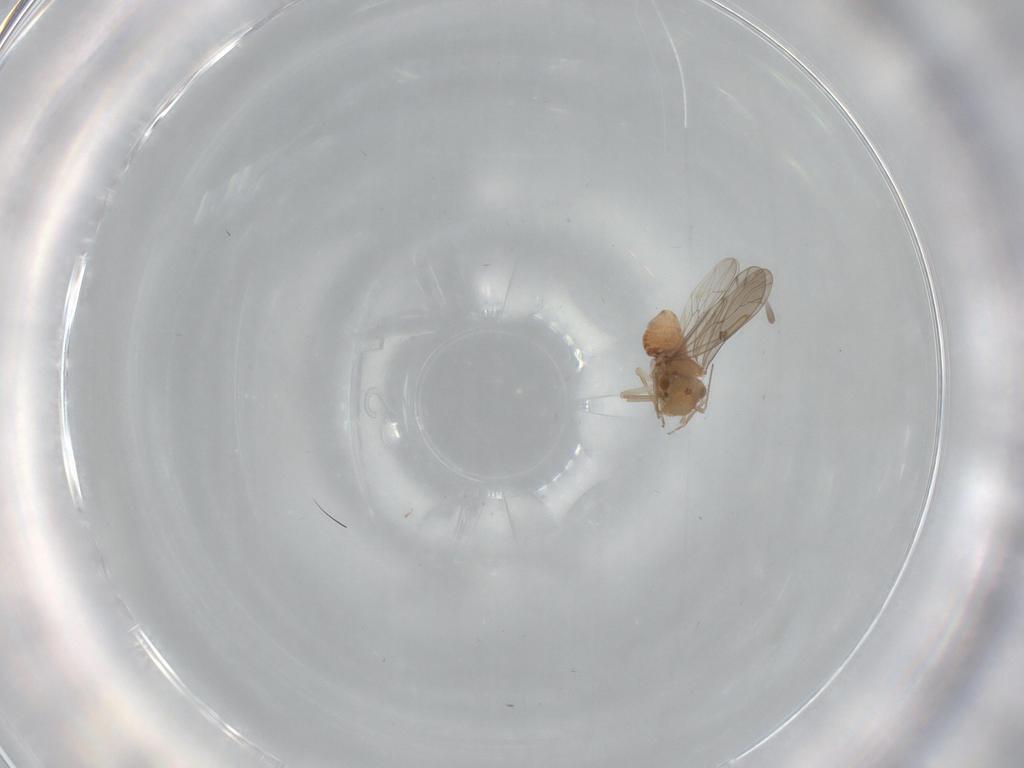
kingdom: Animalia
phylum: Arthropoda
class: Insecta
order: Psocodea
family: Ectopsocidae
